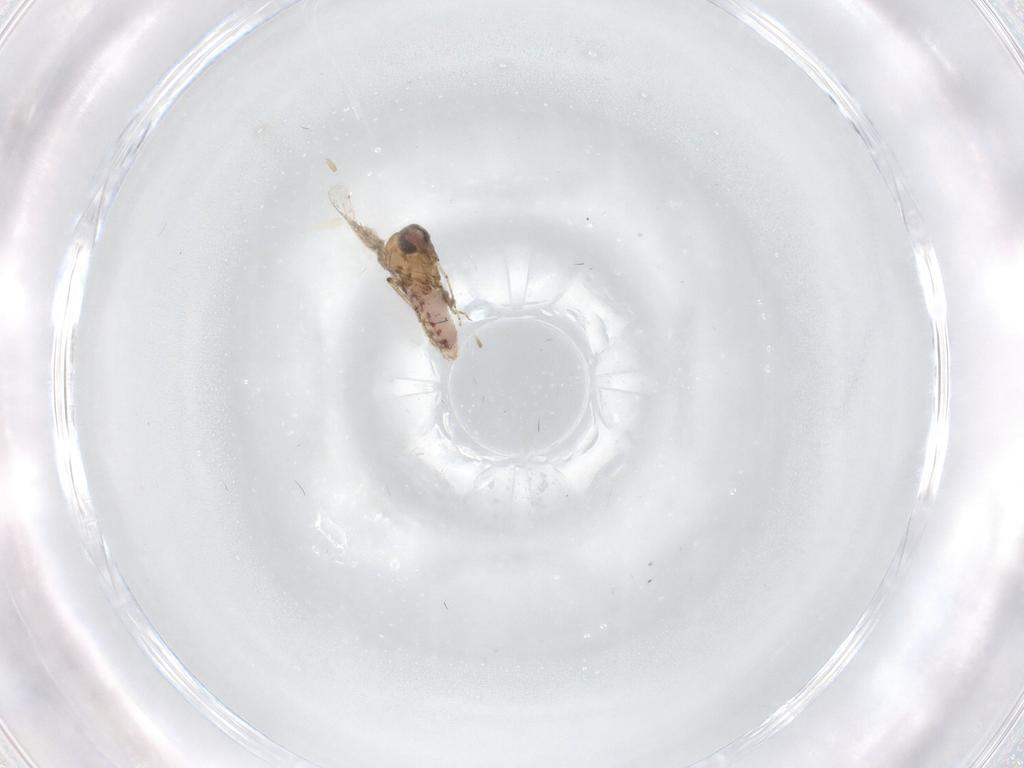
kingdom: Animalia
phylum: Arthropoda
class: Insecta
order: Diptera
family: Ceratopogonidae
